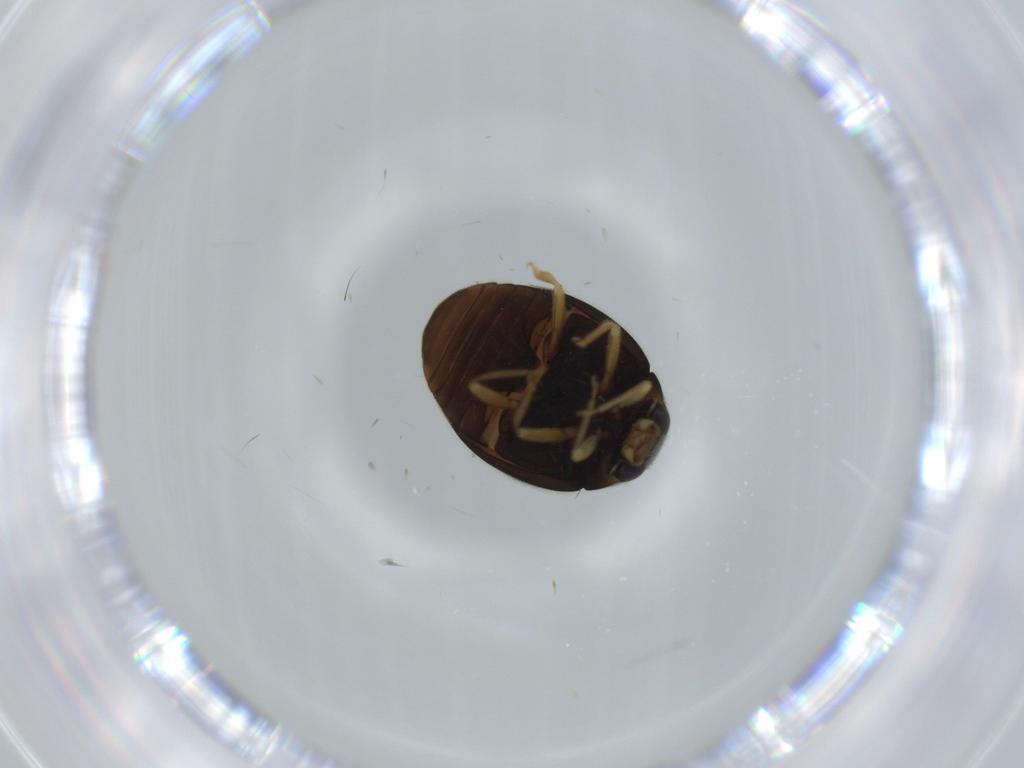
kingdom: Animalia
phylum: Arthropoda
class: Insecta
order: Coleoptera
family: Coccinellidae
